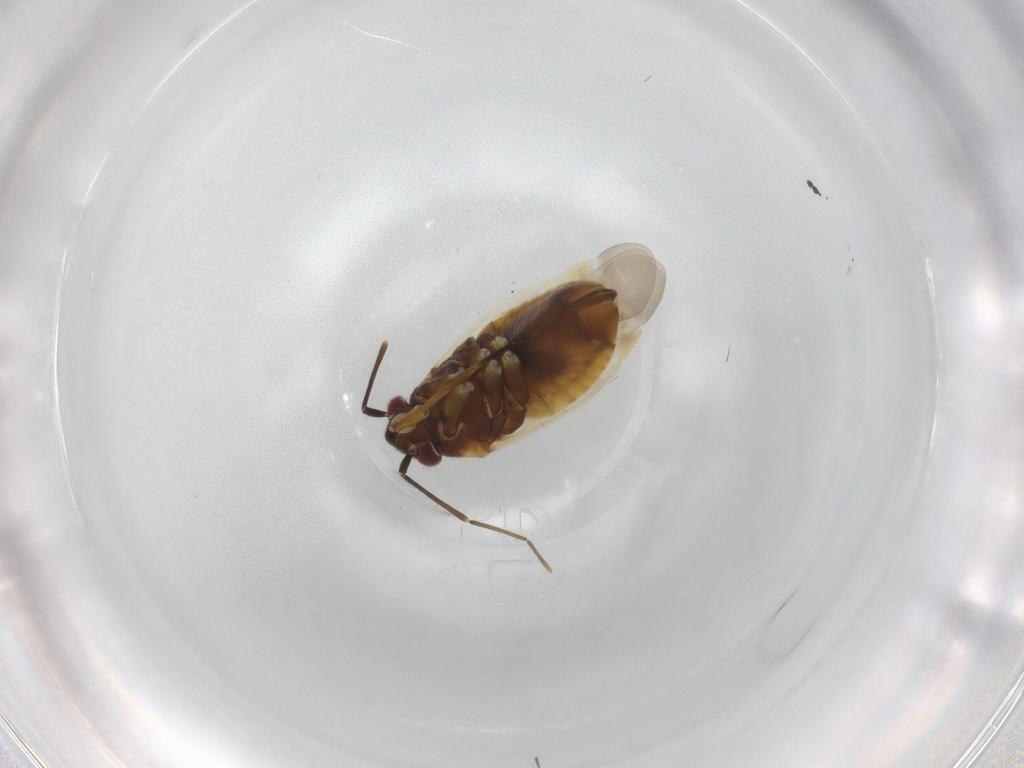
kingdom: Animalia
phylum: Arthropoda
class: Insecta
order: Hemiptera
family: Miridae
